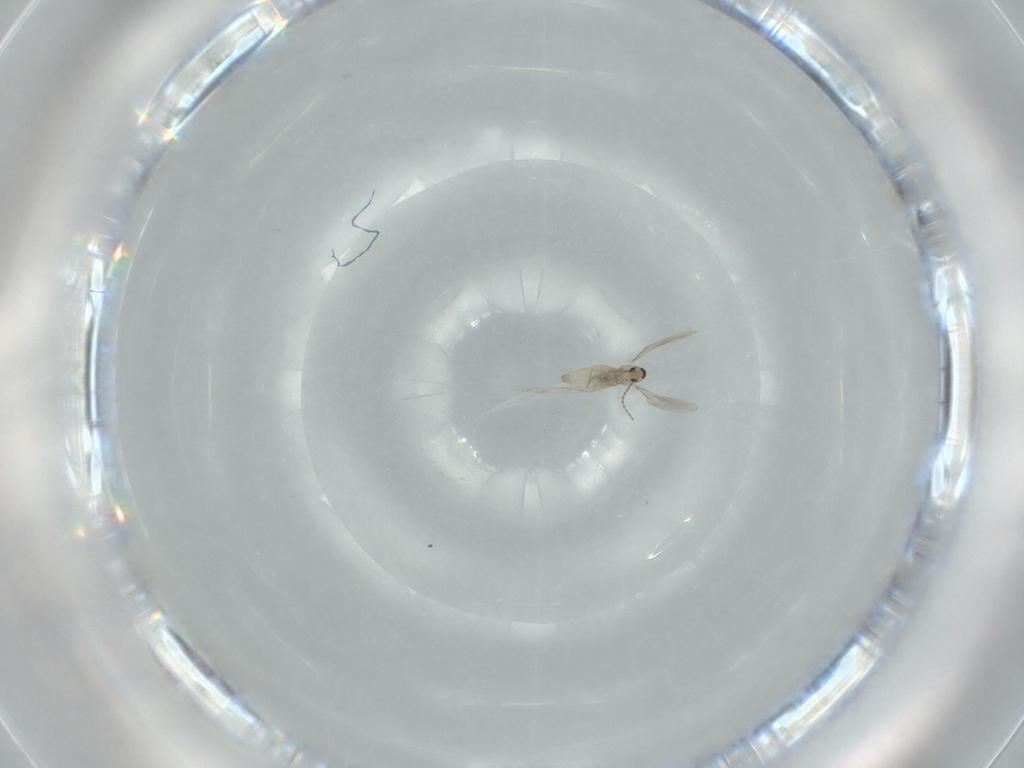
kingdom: Animalia
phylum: Arthropoda
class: Insecta
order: Diptera
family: Cecidomyiidae
